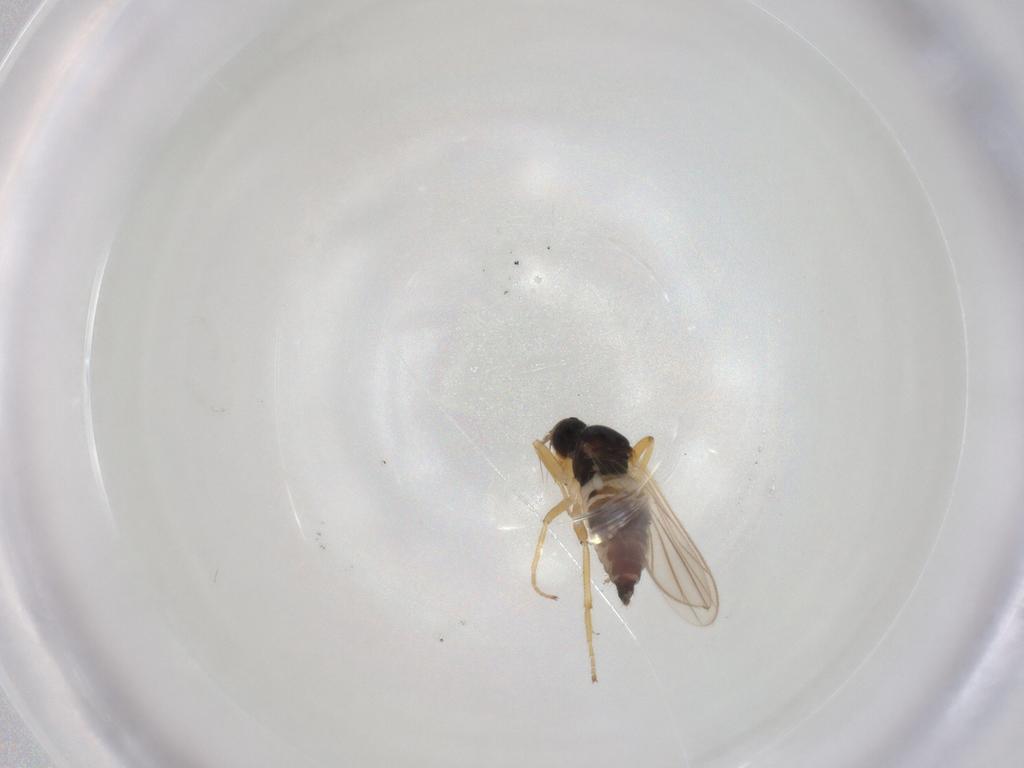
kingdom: Animalia
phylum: Arthropoda
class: Insecta
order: Diptera
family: Hybotidae
